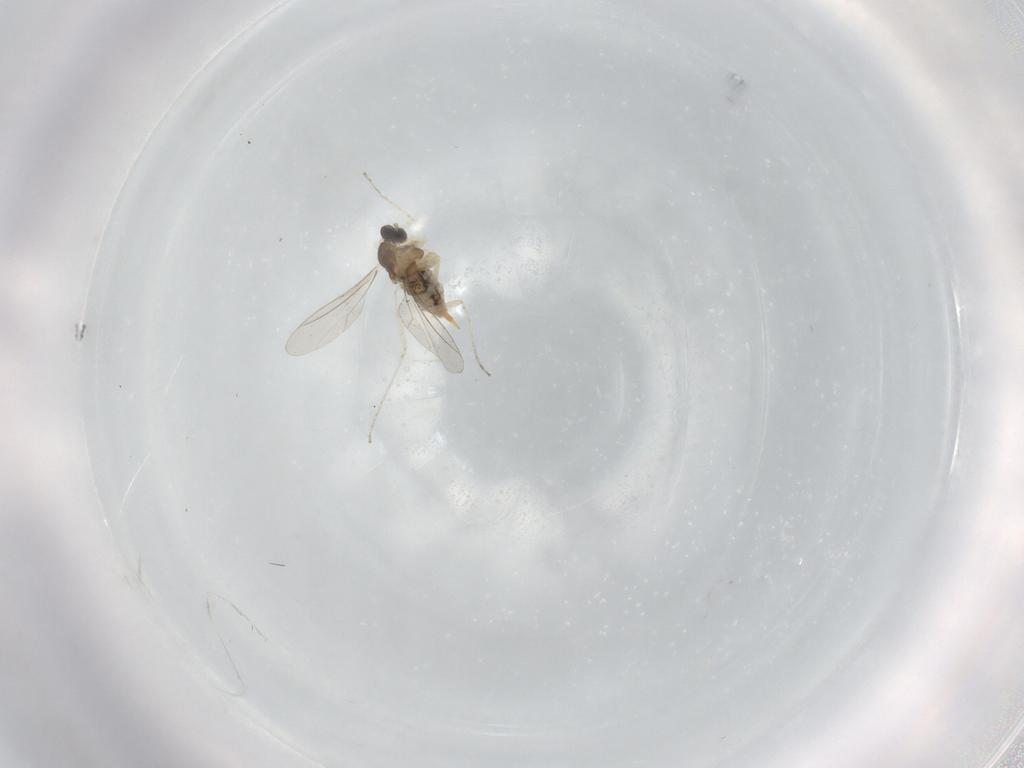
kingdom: Animalia
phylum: Arthropoda
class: Insecta
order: Diptera
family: Cecidomyiidae
